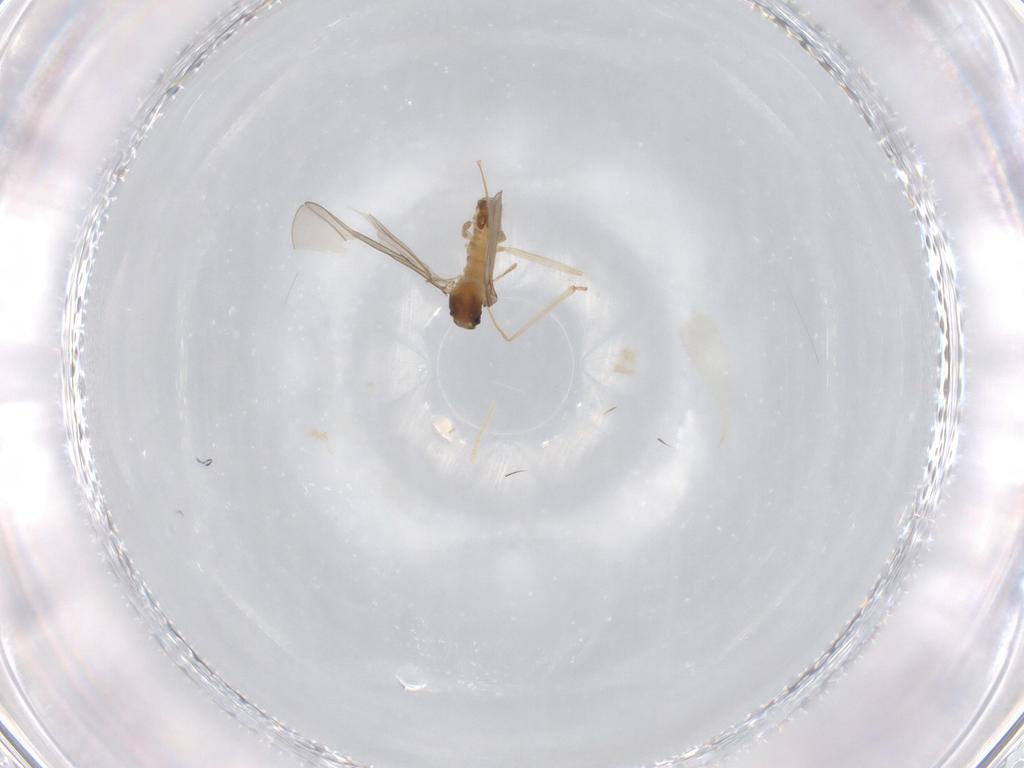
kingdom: Animalia
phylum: Arthropoda
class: Insecta
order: Diptera
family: Cecidomyiidae
